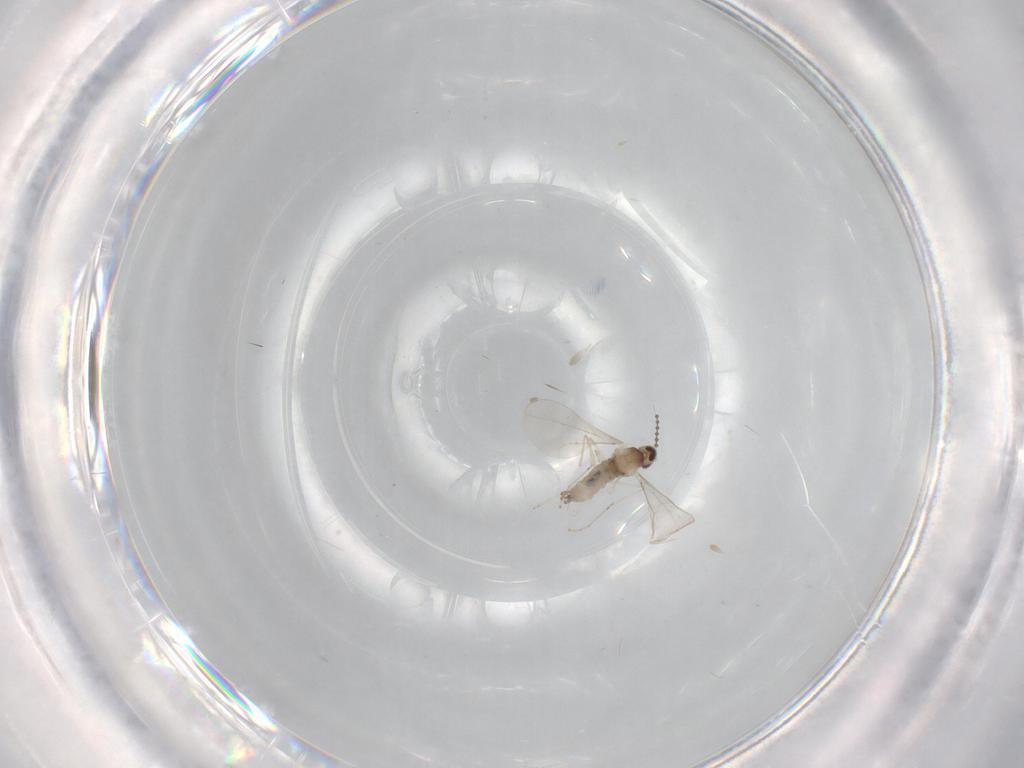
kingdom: Animalia
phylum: Arthropoda
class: Insecta
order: Diptera
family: Cecidomyiidae
